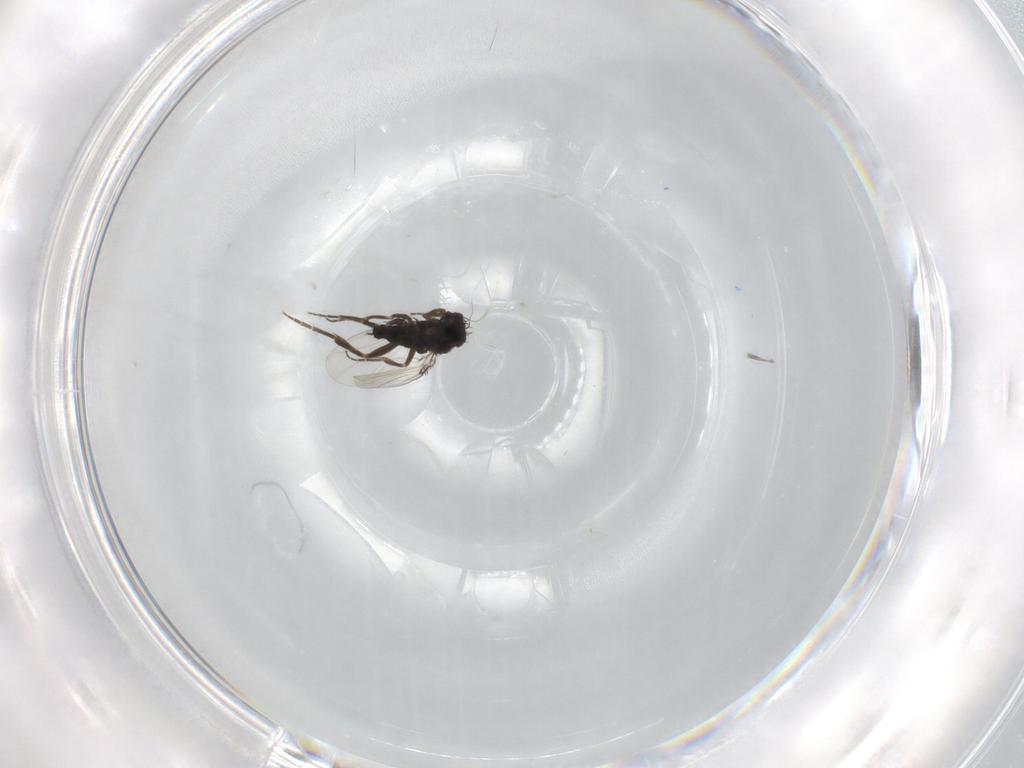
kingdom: Animalia
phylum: Arthropoda
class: Insecta
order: Diptera
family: Phoridae
